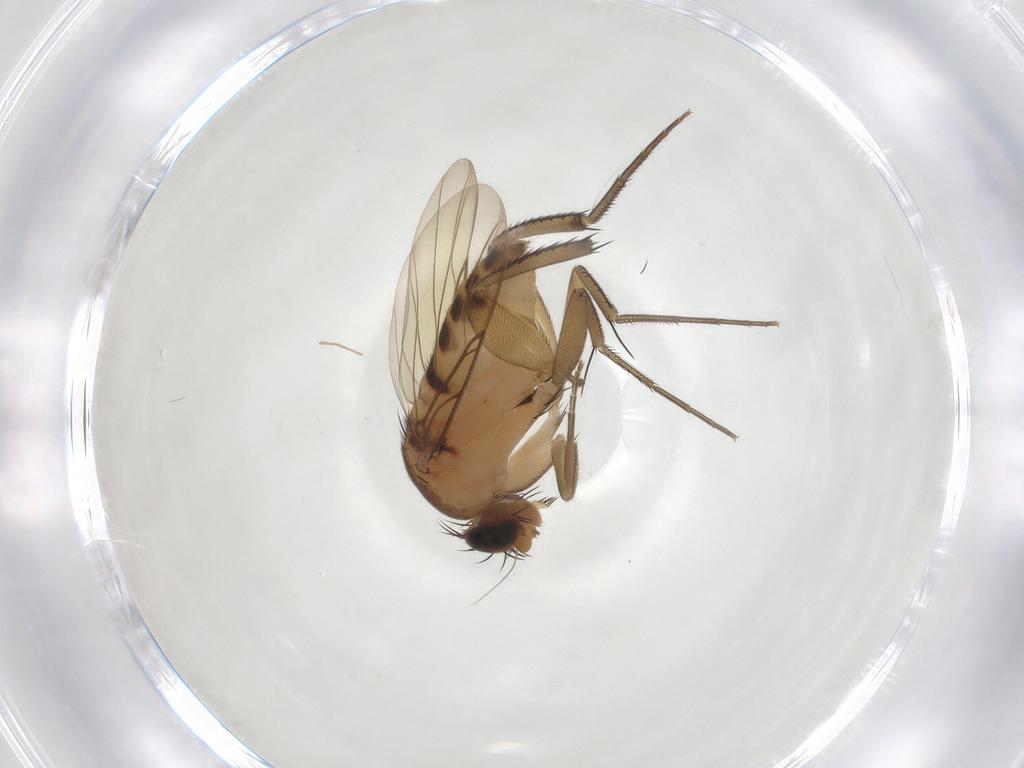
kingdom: Animalia
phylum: Arthropoda
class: Insecta
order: Diptera
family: Phoridae
